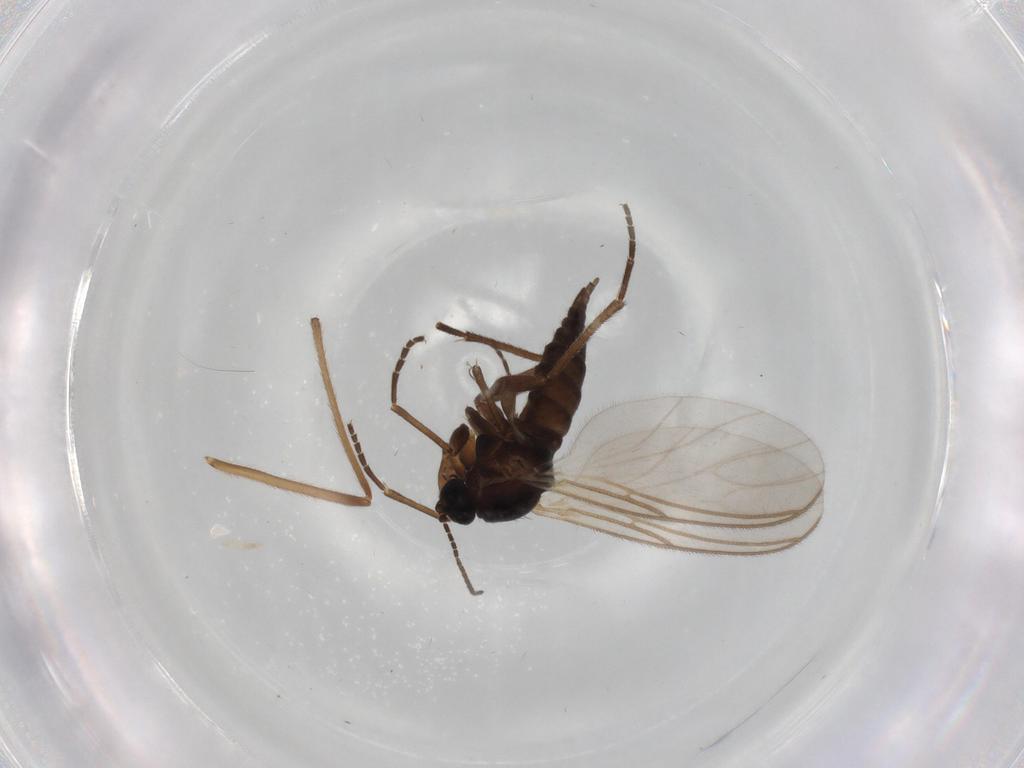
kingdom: Animalia
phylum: Arthropoda
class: Insecta
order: Diptera
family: Sciaridae
